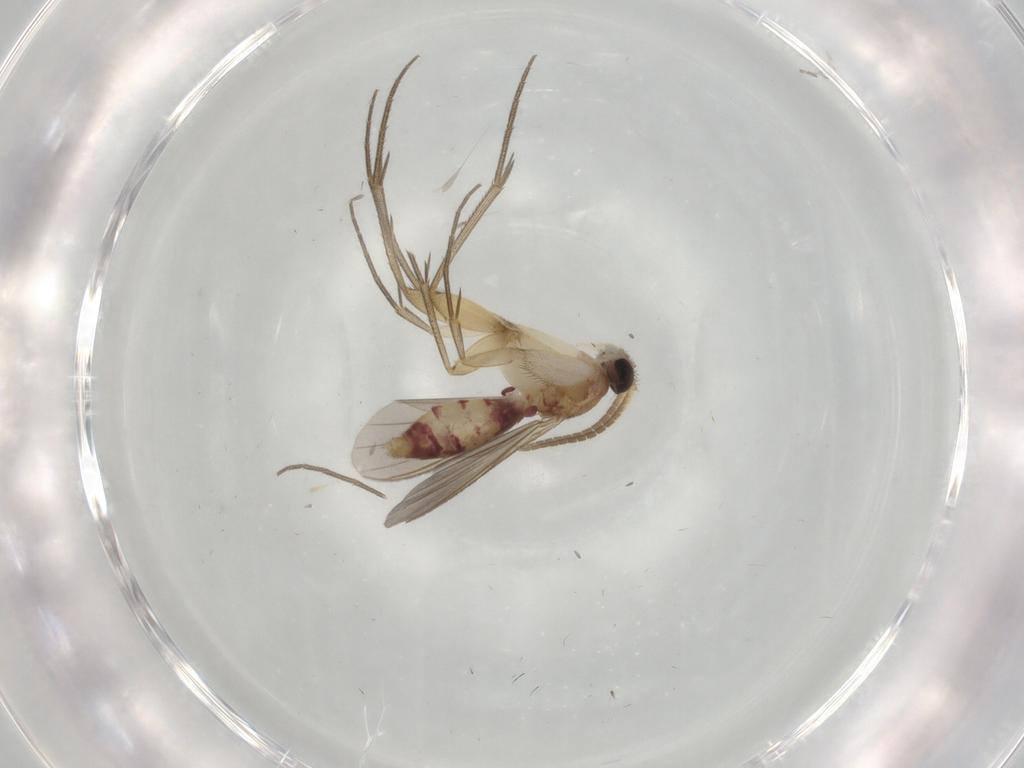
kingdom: Animalia
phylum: Arthropoda
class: Insecta
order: Diptera
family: Mycetophilidae
